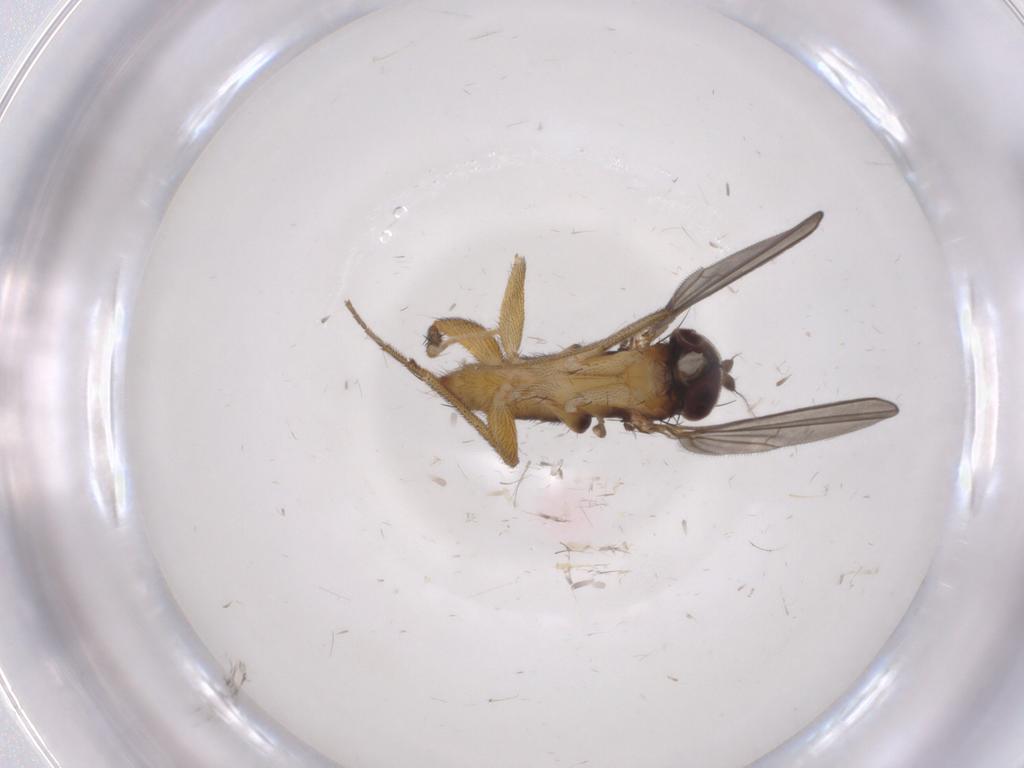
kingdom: Animalia
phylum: Arthropoda
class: Insecta
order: Diptera
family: Dolichopodidae
